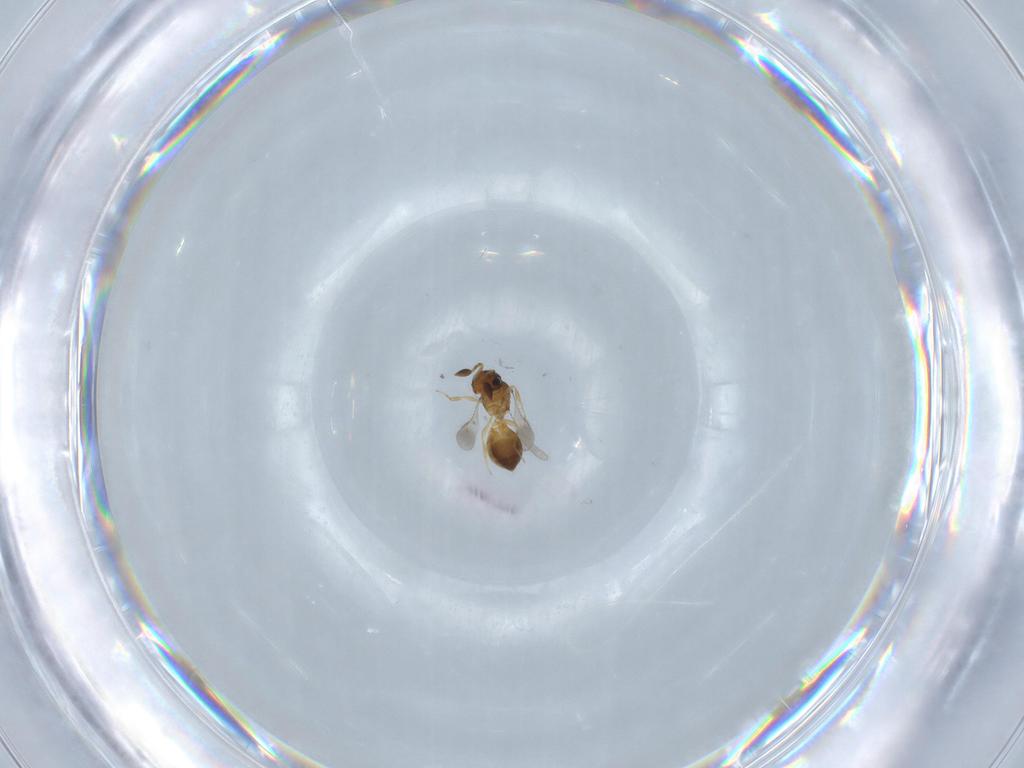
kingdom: Animalia
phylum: Arthropoda
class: Insecta
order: Hymenoptera
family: Scelionidae
